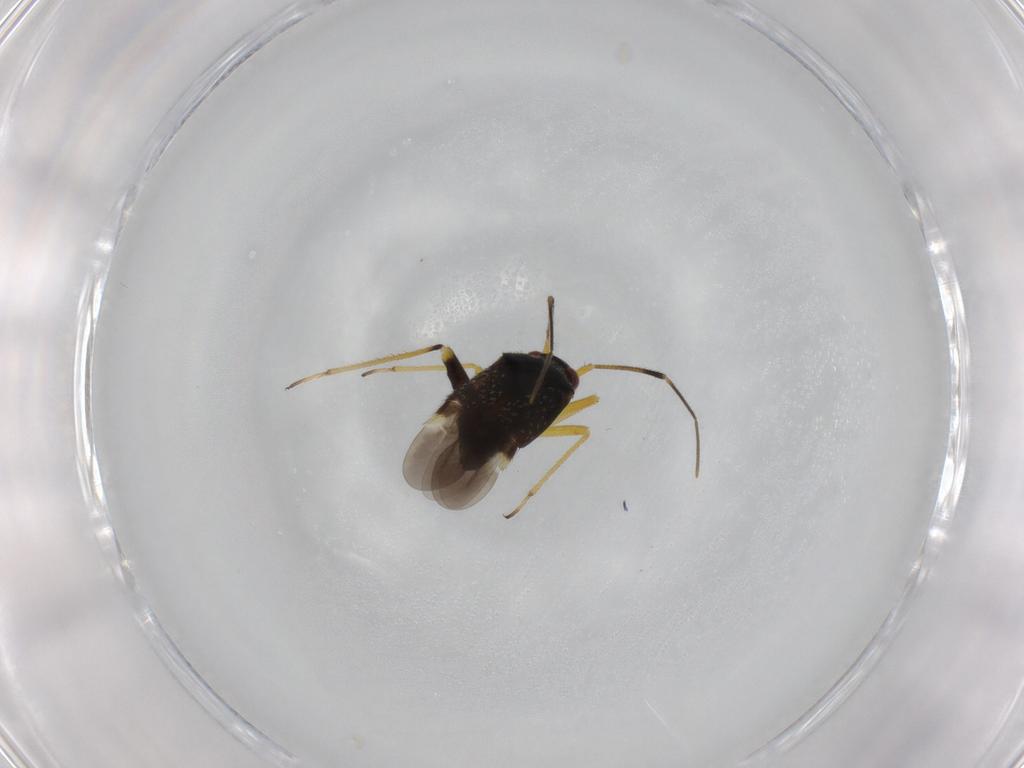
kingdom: Animalia
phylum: Arthropoda
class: Insecta
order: Hemiptera
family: Miridae
